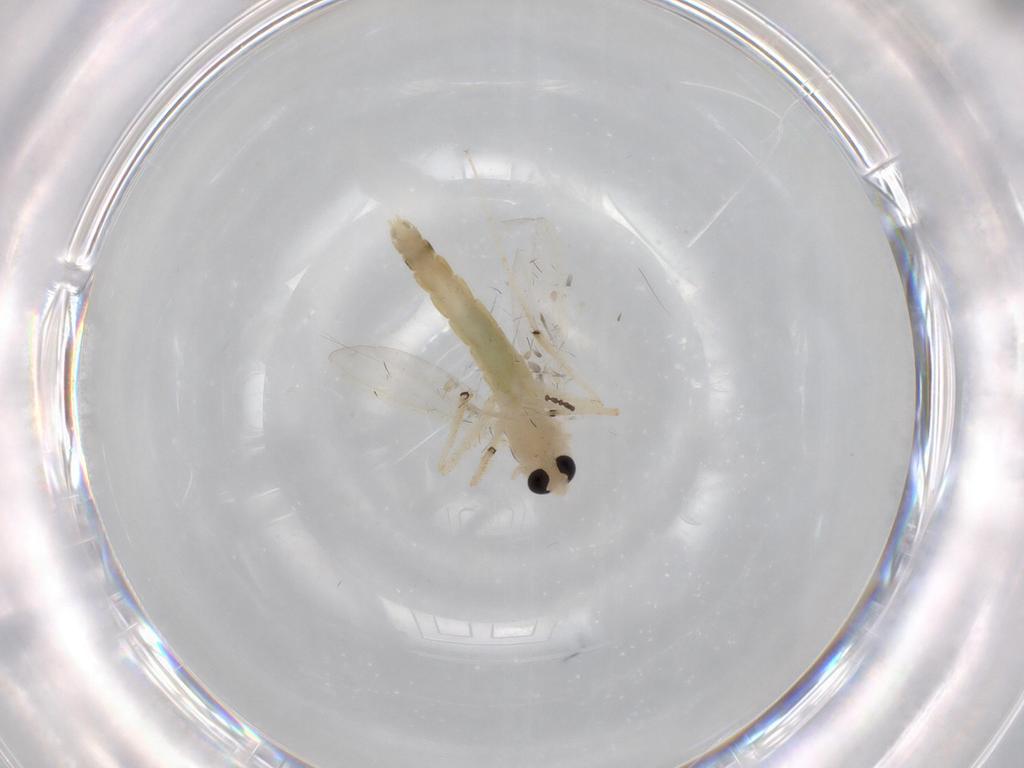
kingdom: Animalia
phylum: Arthropoda
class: Insecta
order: Diptera
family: Chironomidae
